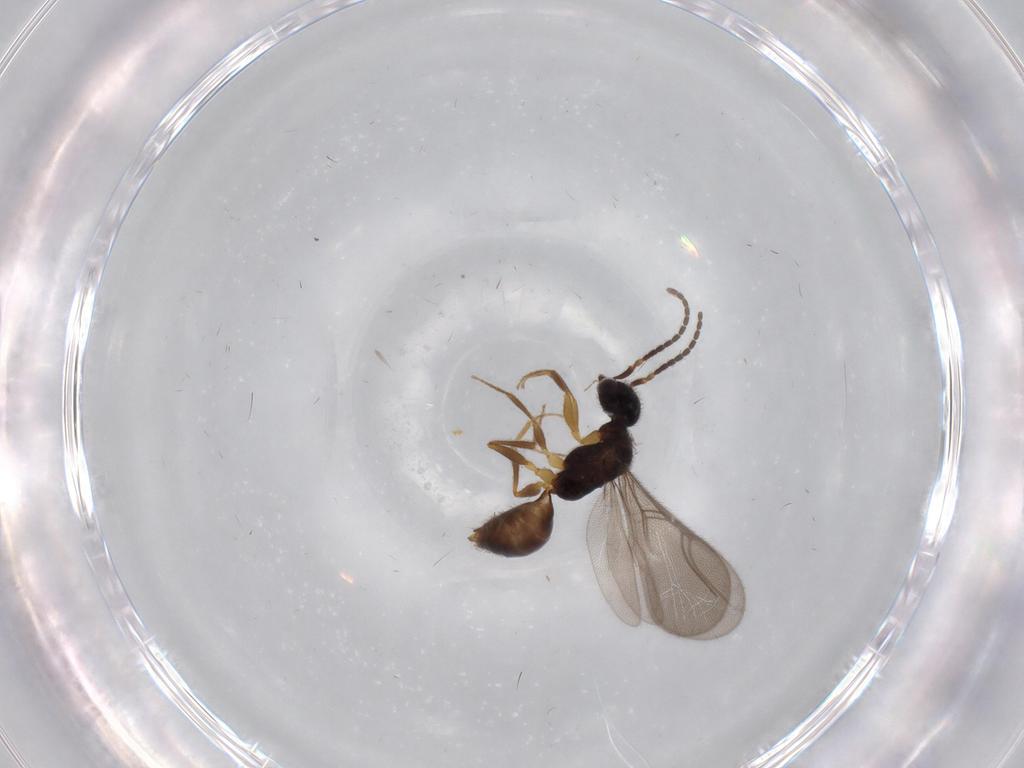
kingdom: Animalia
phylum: Arthropoda
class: Insecta
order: Hymenoptera
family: Bethylidae
